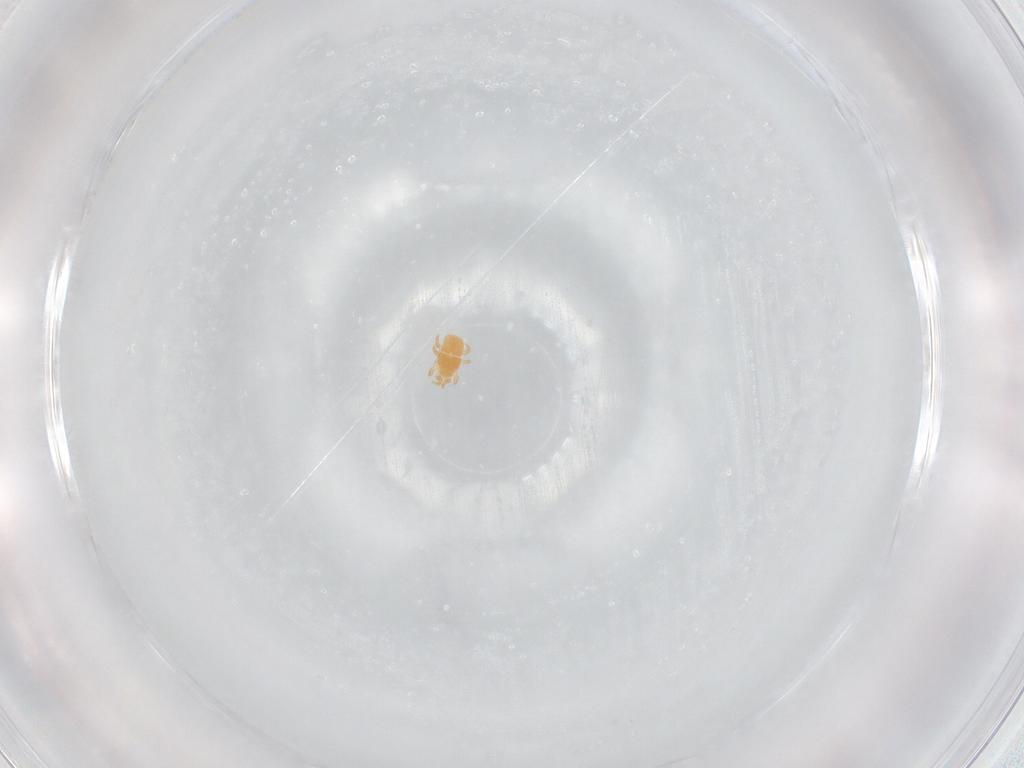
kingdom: Animalia
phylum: Arthropoda
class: Arachnida
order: Mesostigmata
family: Digamasellidae
